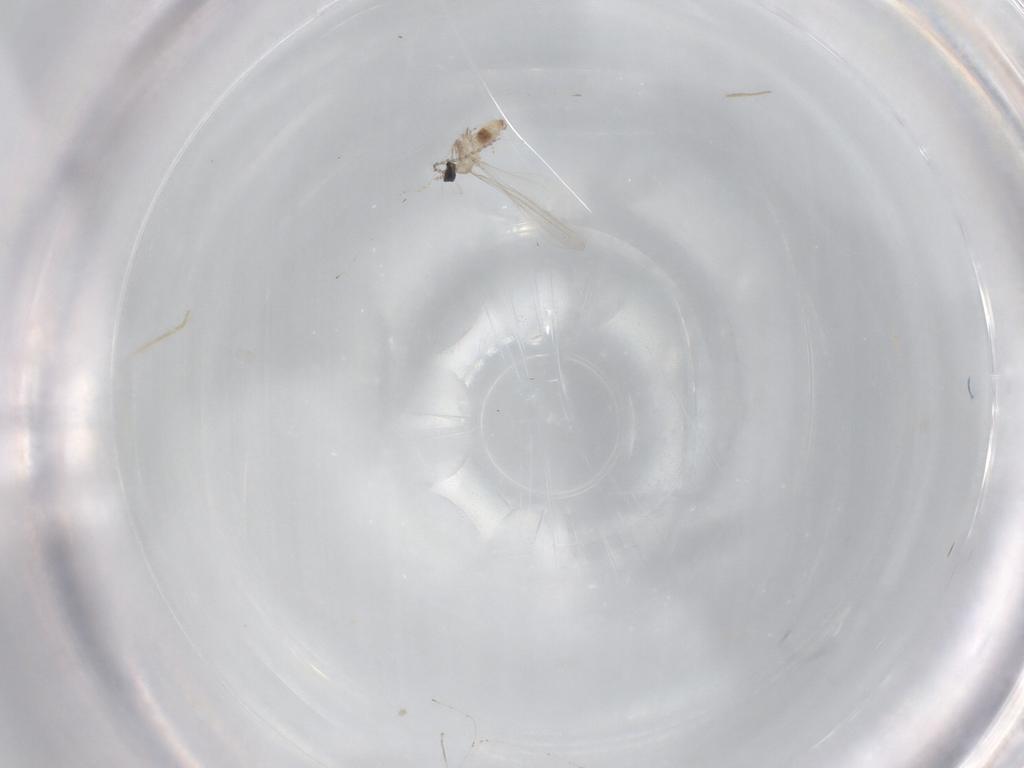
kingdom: Animalia
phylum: Arthropoda
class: Insecta
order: Diptera
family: Cecidomyiidae
